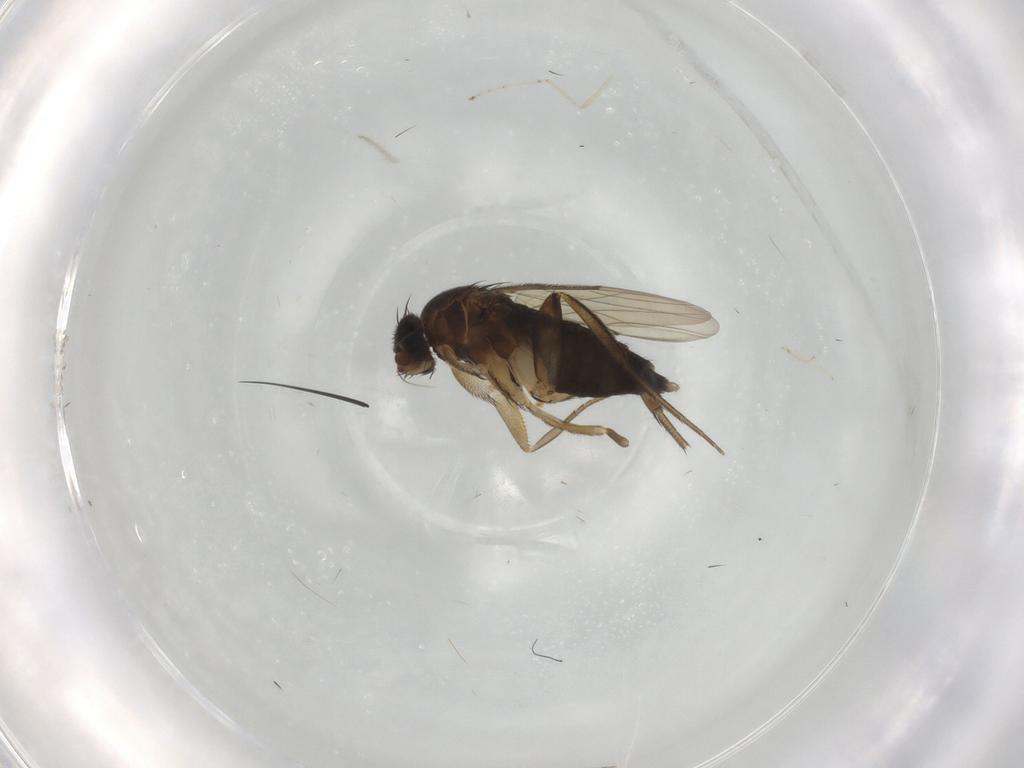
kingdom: Animalia
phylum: Arthropoda
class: Insecta
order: Diptera
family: Phoridae
